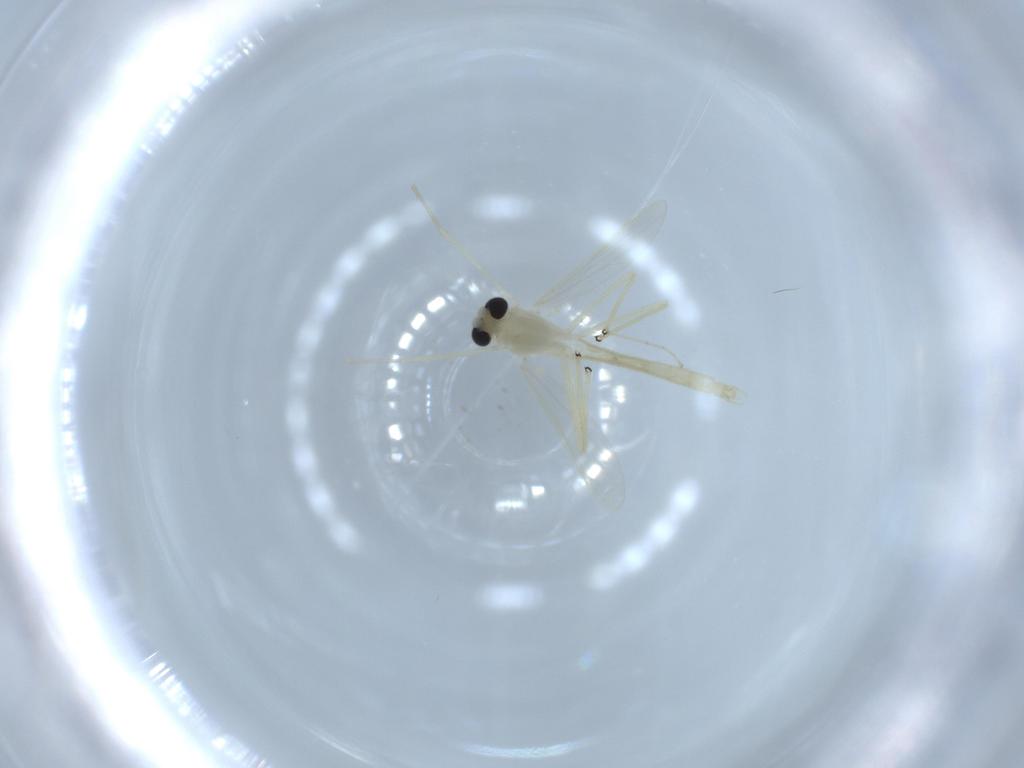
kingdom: Animalia
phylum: Arthropoda
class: Insecta
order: Diptera
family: Chironomidae
